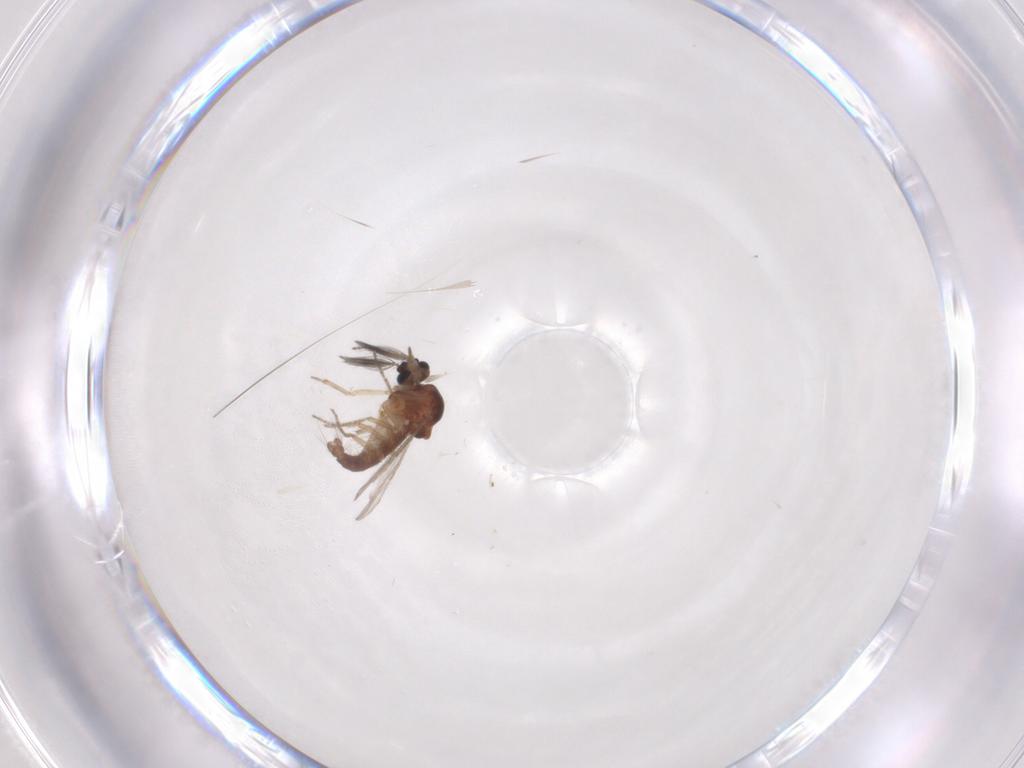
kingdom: Animalia
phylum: Arthropoda
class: Insecta
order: Diptera
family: Ceratopogonidae
